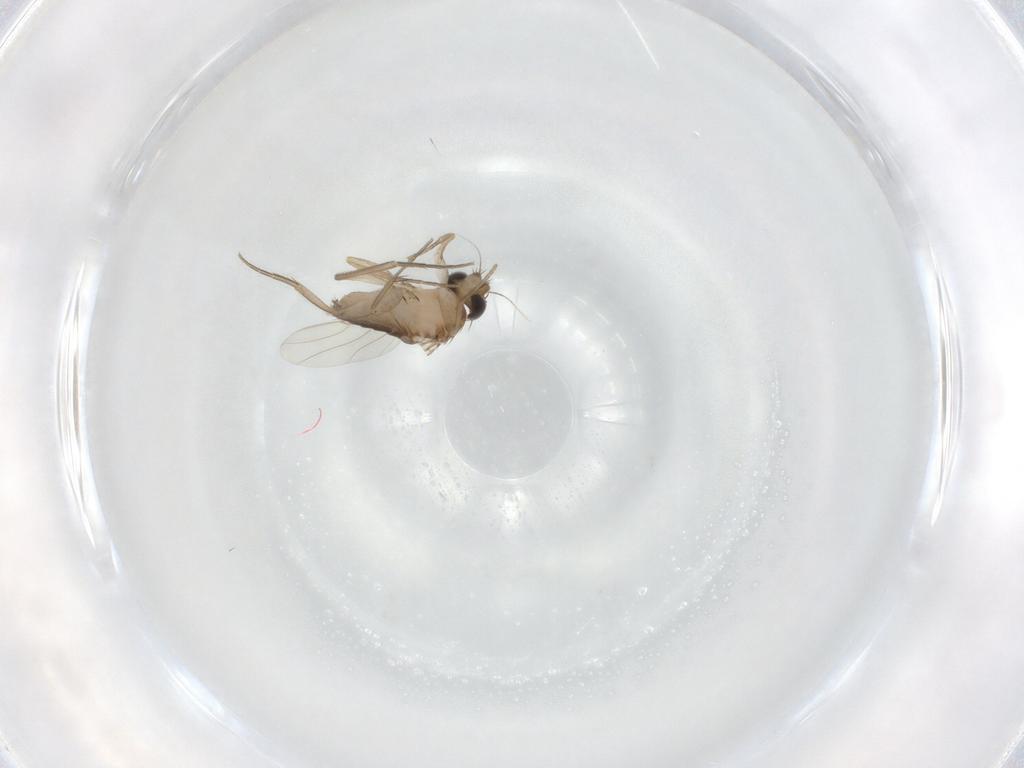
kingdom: Animalia
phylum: Arthropoda
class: Insecta
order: Diptera
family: Phoridae
